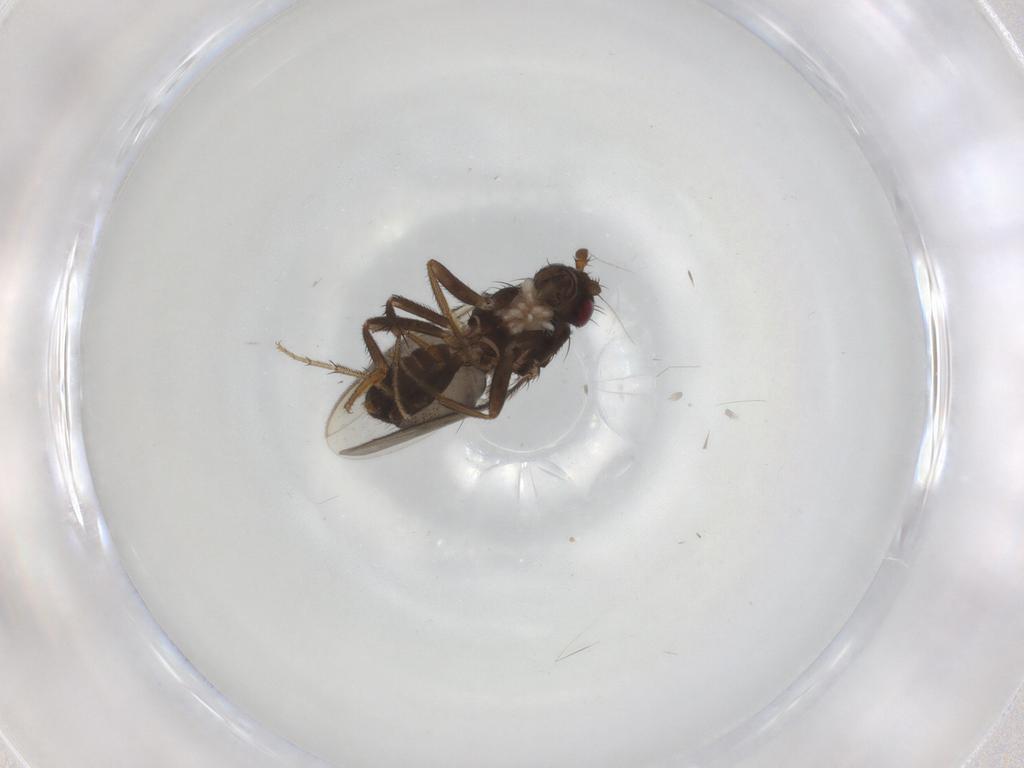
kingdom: Animalia
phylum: Arthropoda
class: Insecta
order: Diptera
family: Sphaeroceridae
